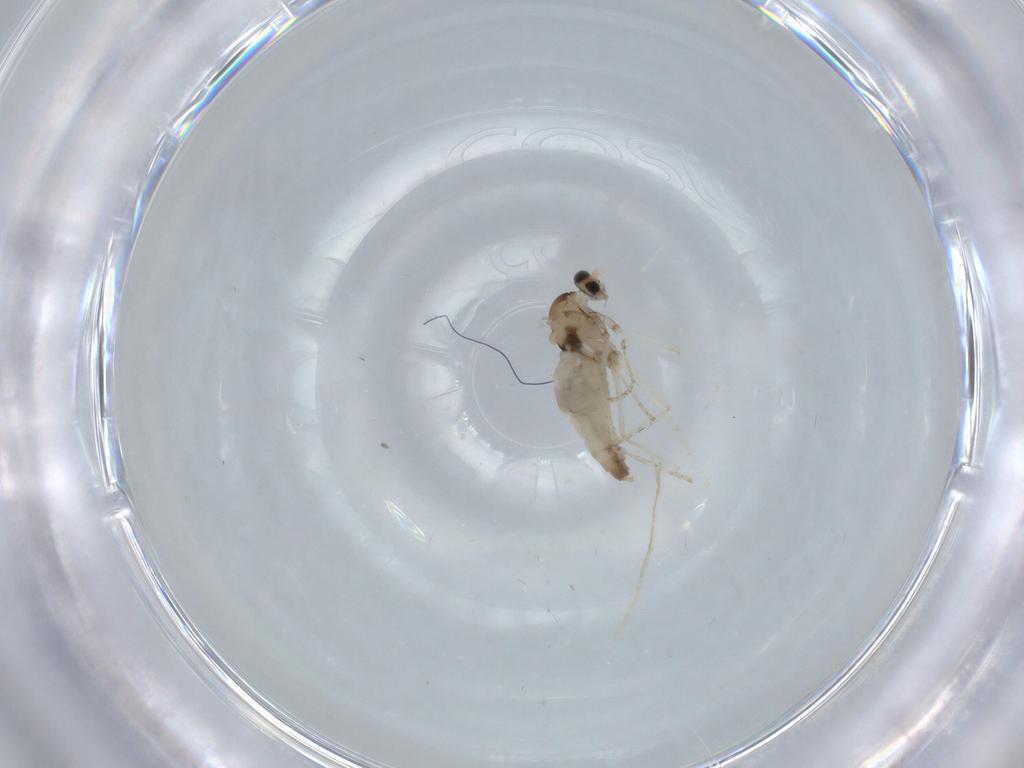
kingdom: Animalia
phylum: Arthropoda
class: Insecta
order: Diptera
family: Cecidomyiidae
